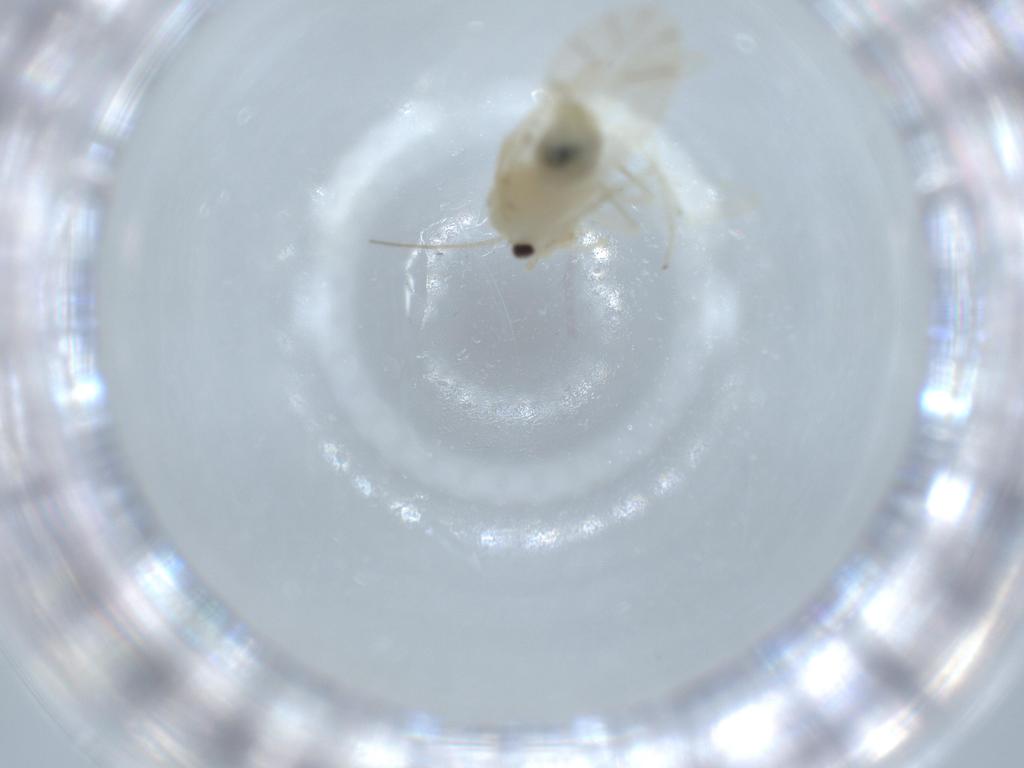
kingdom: Animalia
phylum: Arthropoda
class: Insecta
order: Psocodea
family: Caeciliusidae
